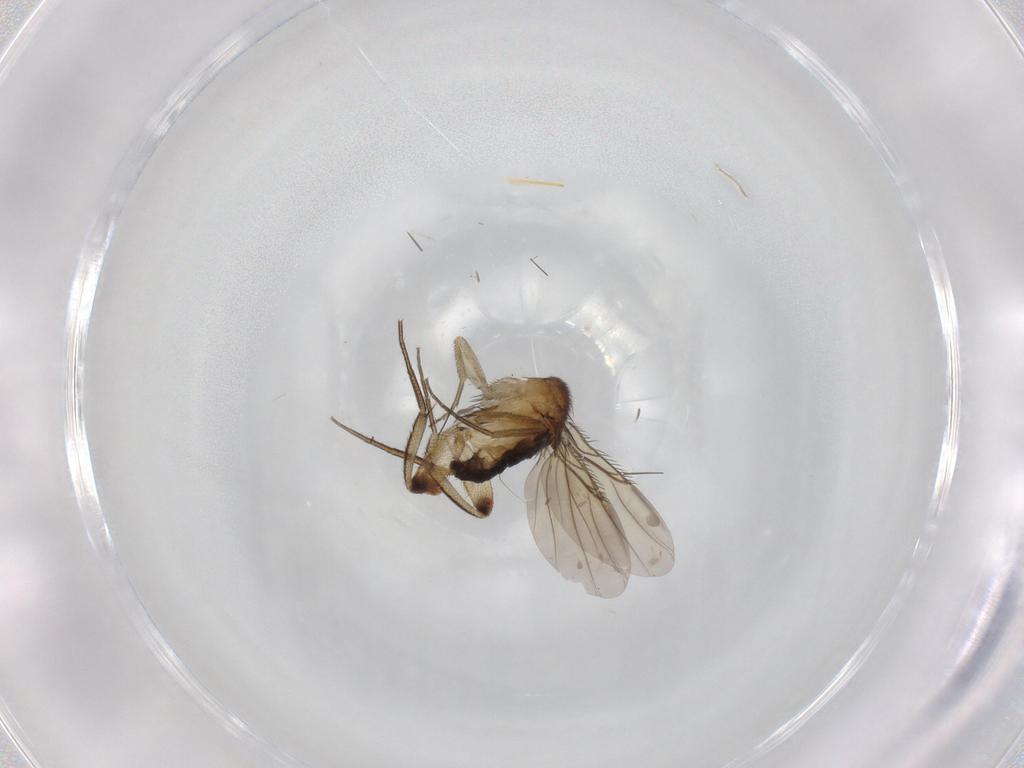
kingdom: Animalia
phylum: Arthropoda
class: Insecta
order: Diptera
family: Phoridae
